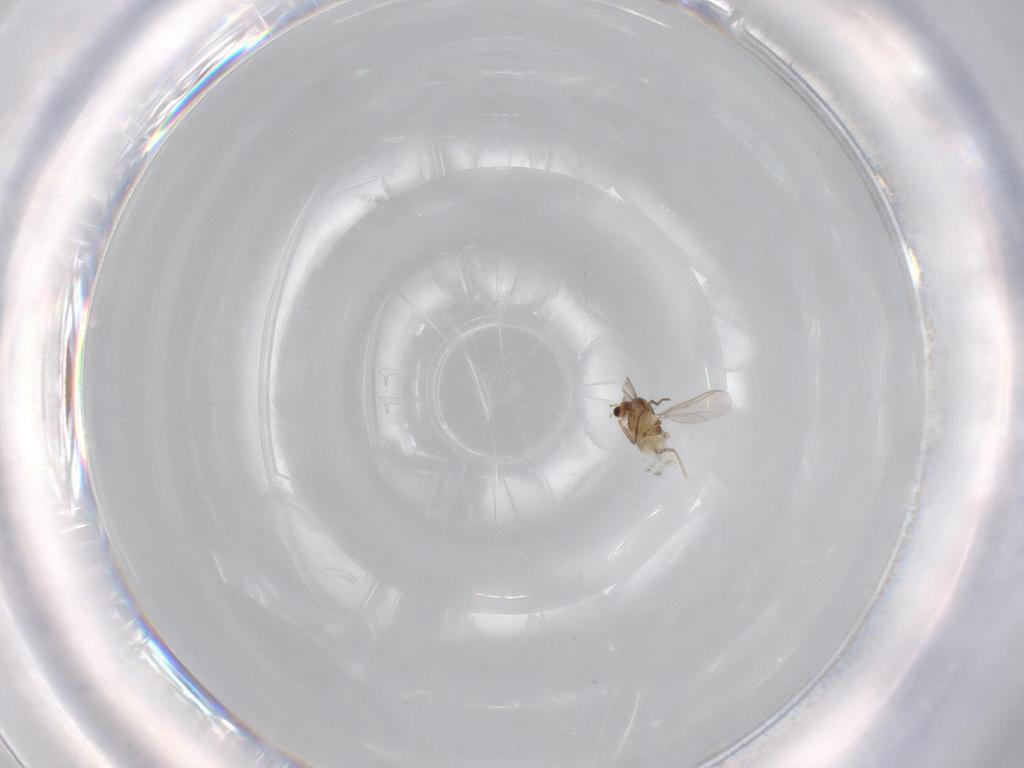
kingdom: Animalia
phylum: Arthropoda
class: Insecta
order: Diptera
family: Chironomidae
